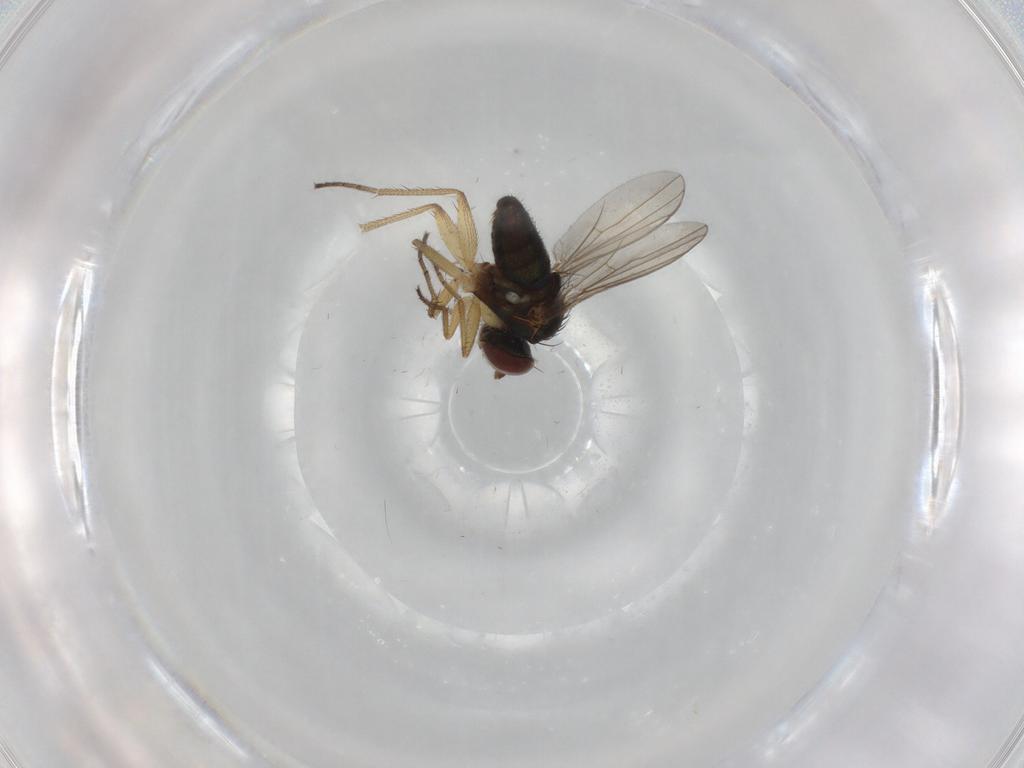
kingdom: Animalia
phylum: Arthropoda
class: Insecta
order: Diptera
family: Dolichopodidae
